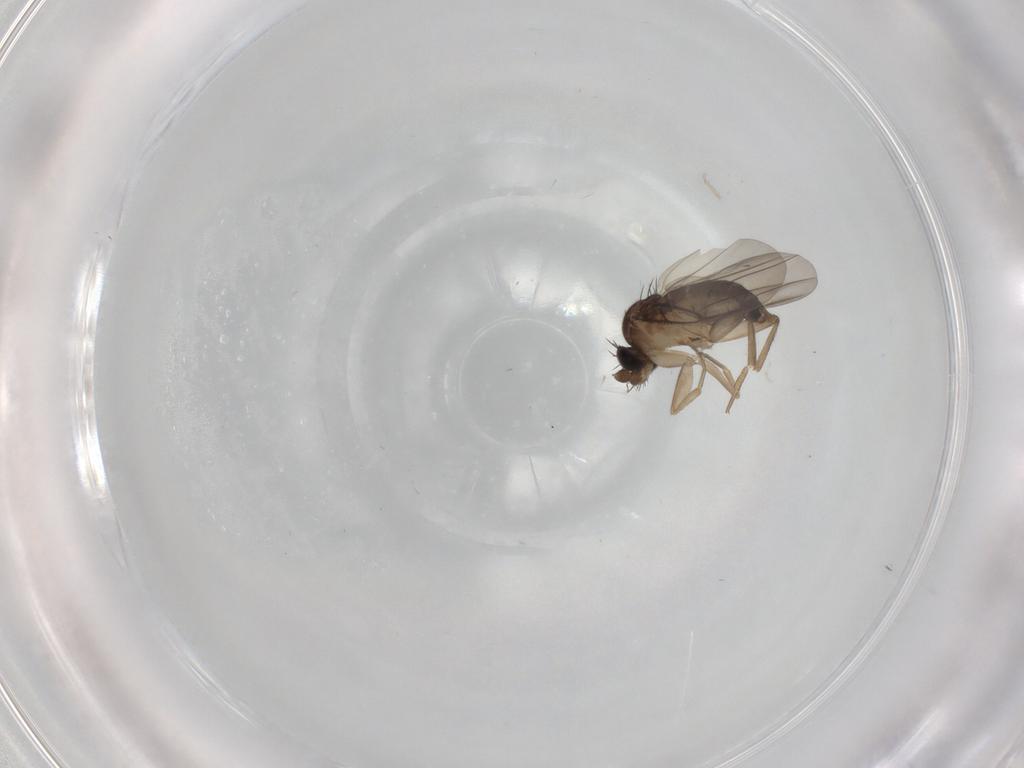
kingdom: Animalia
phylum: Arthropoda
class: Insecta
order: Diptera
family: Phoridae
